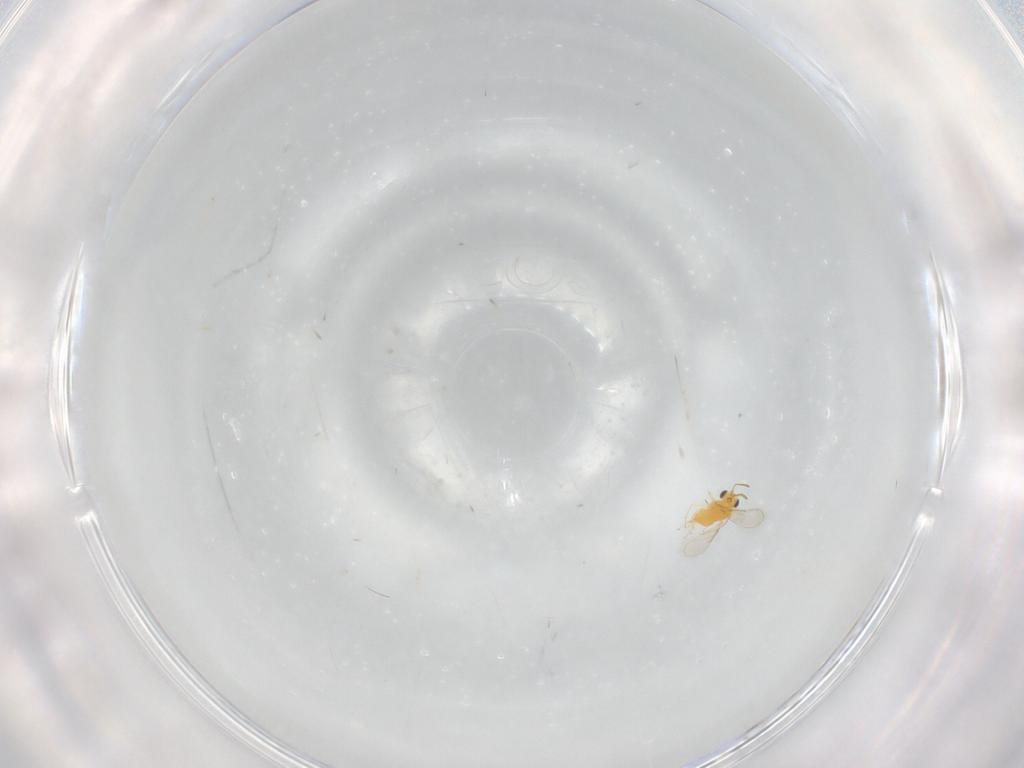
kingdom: Animalia
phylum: Arthropoda
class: Insecta
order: Hymenoptera
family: Aphelinidae
